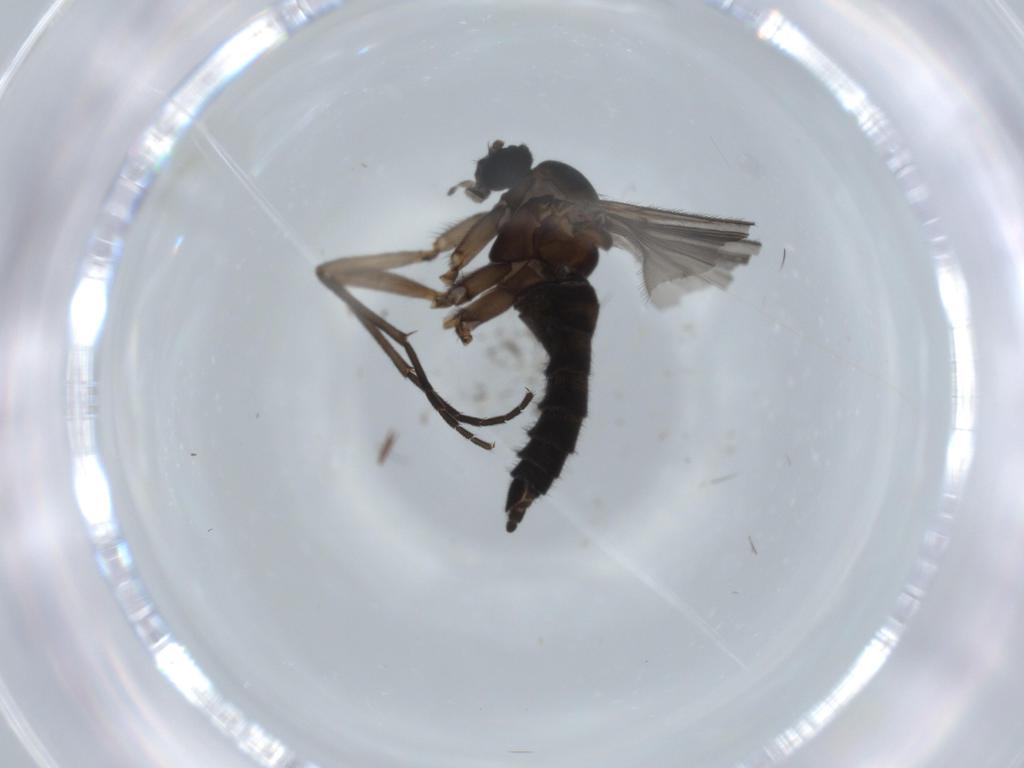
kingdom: Animalia
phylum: Arthropoda
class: Insecta
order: Diptera
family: Sciaridae
